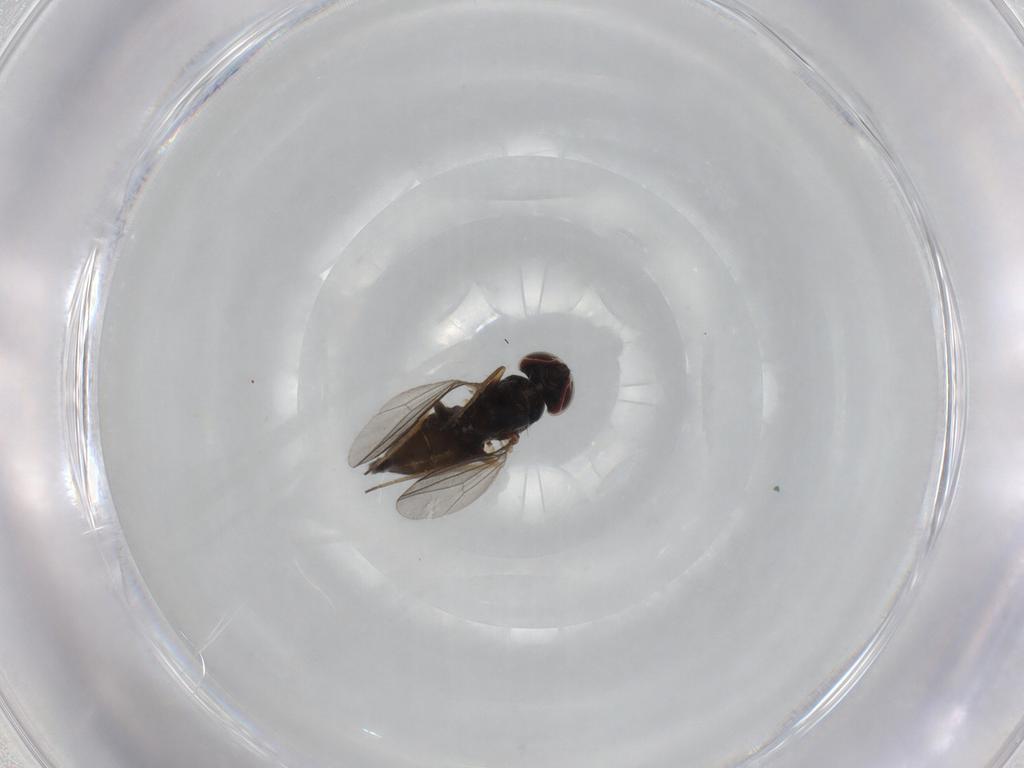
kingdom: Animalia
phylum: Arthropoda
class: Insecta
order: Diptera
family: Dolichopodidae
